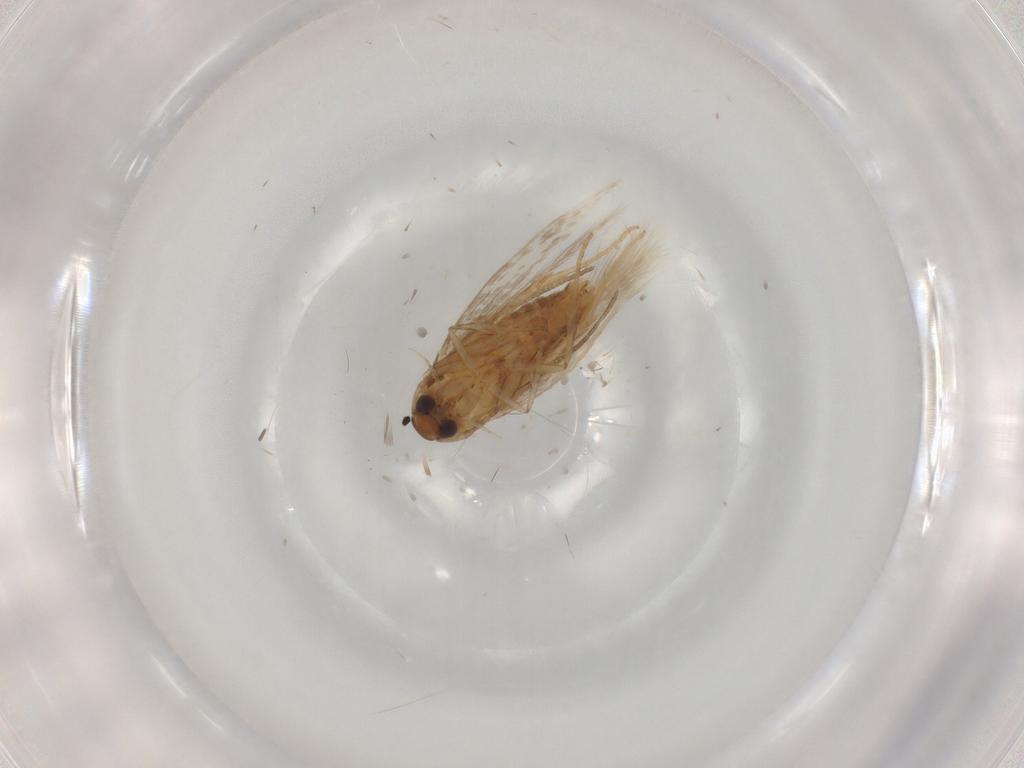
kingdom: Animalia
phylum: Arthropoda
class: Insecta
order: Lepidoptera
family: Cosmopterigidae
